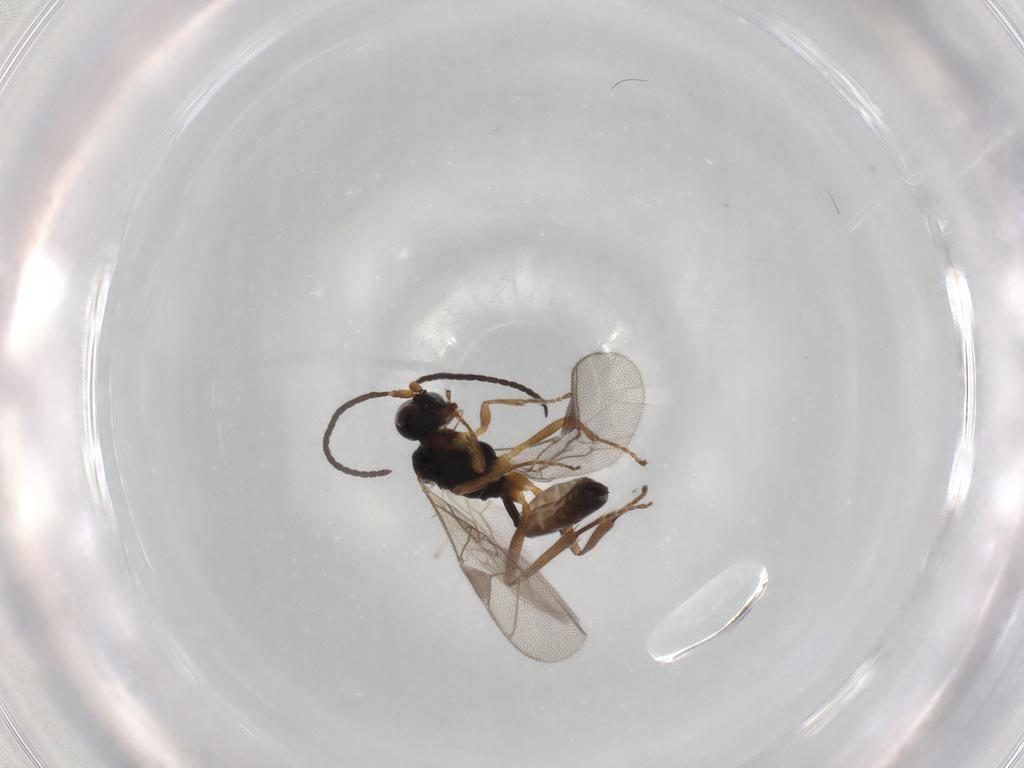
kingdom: Animalia
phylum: Arthropoda
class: Insecta
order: Hymenoptera
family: Ichneumonidae
